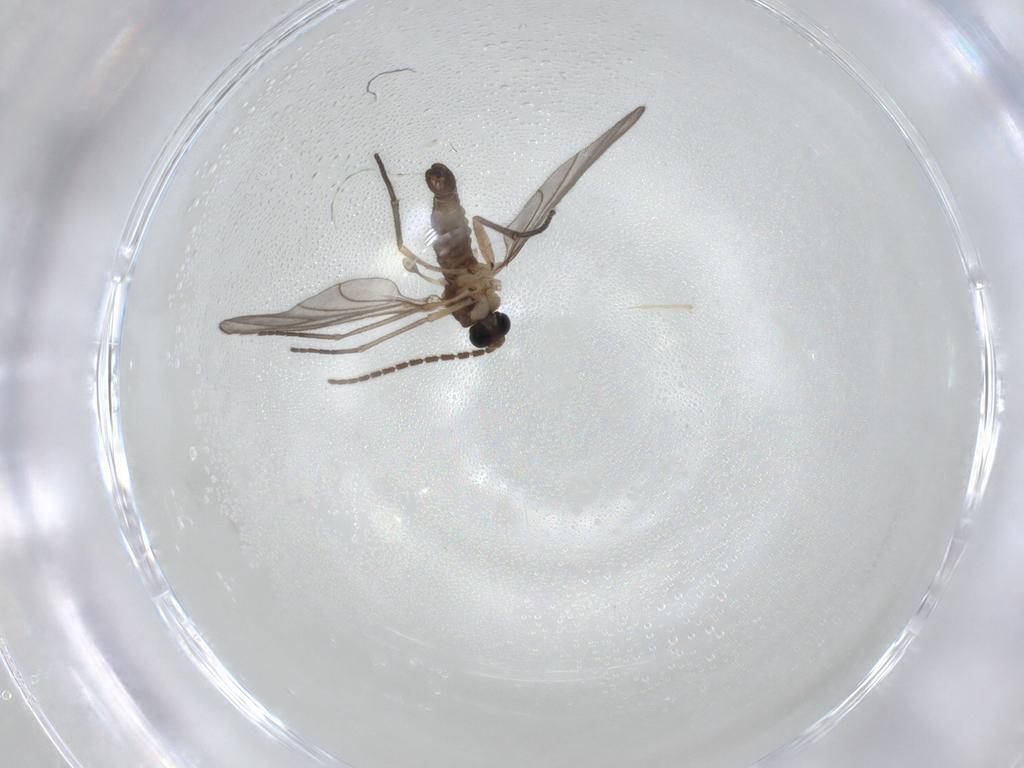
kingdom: Animalia
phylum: Arthropoda
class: Insecta
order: Diptera
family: Sciaridae
